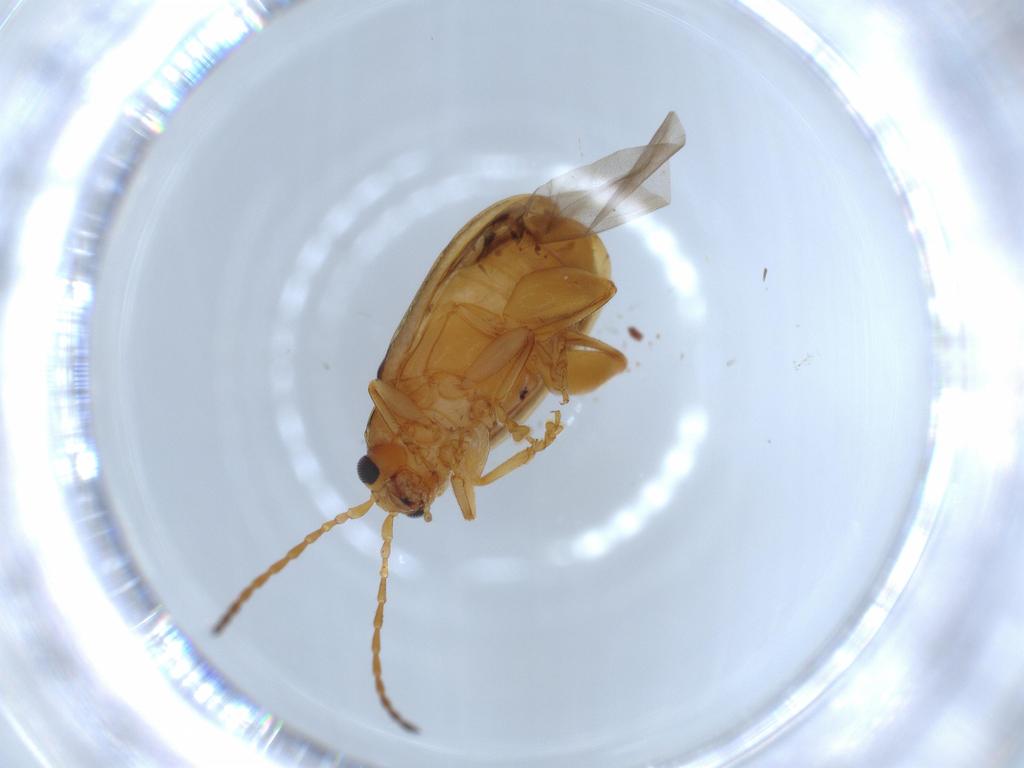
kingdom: Animalia
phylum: Arthropoda
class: Insecta
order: Coleoptera
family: Chrysomelidae
